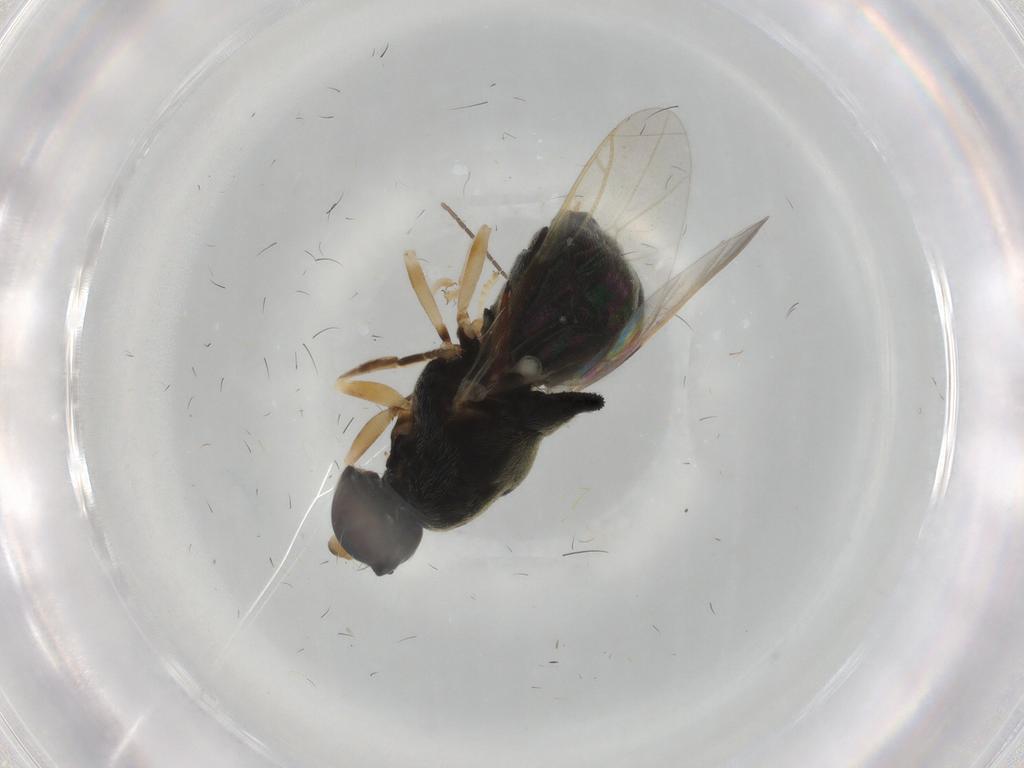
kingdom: Animalia
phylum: Arthropoda
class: Insecta
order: Diptera
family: Stratiomyidae
